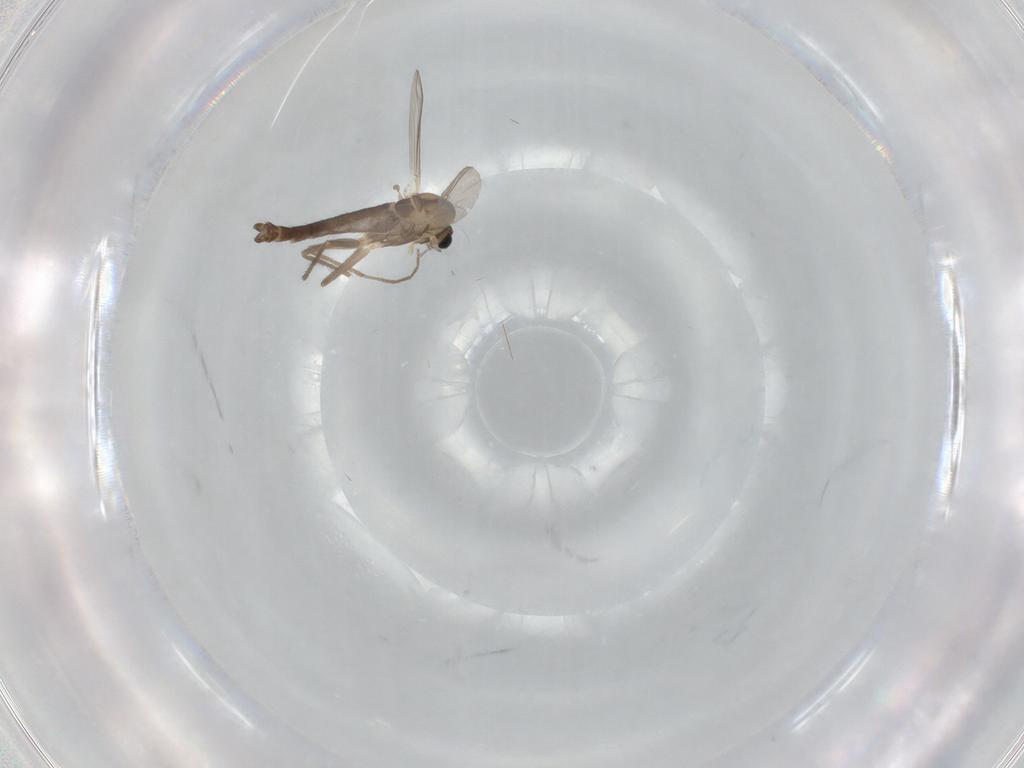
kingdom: Animalia
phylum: Arthropoda
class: Insecta
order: Diptera
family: Chironomidae
